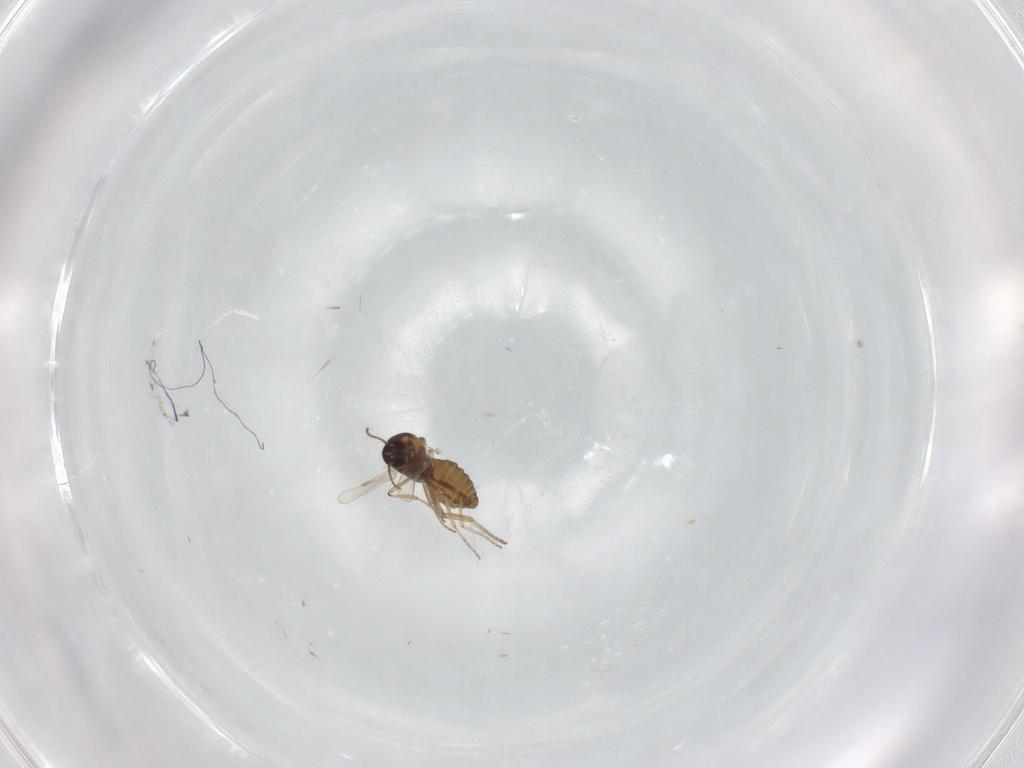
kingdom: Animalia
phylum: Arthropoda
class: Insecta
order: Diptera
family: Ceratopogonidae
